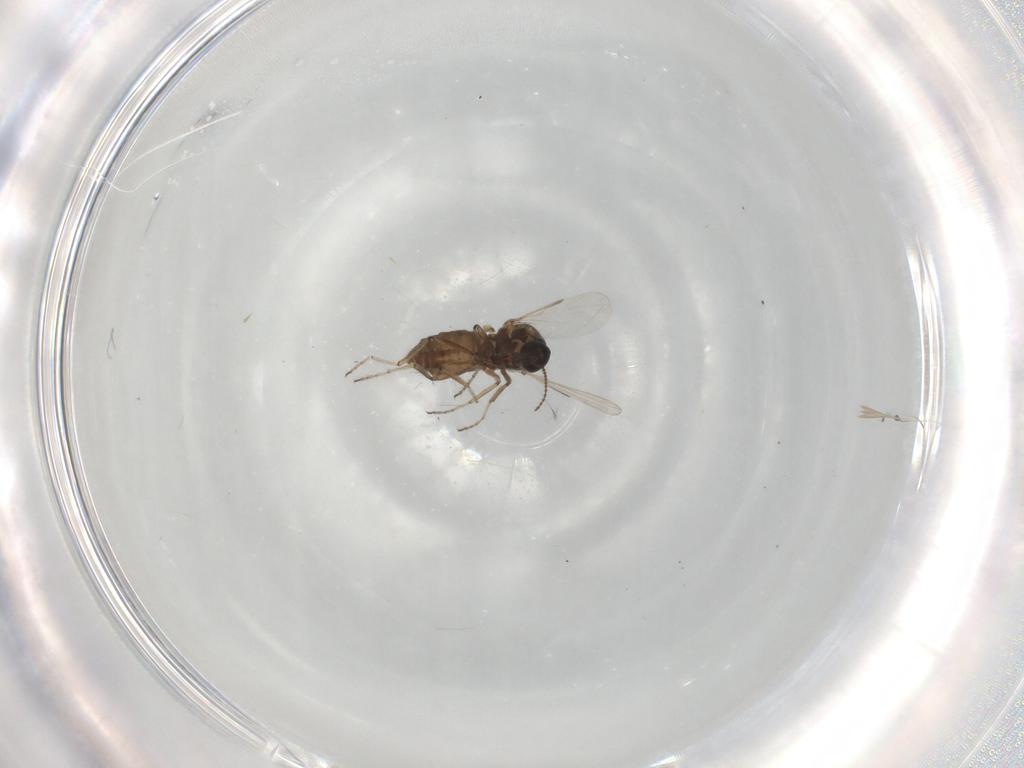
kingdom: Animalia
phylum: Arthropoda
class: Insecta
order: Diptera
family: Ceratopogonidae
